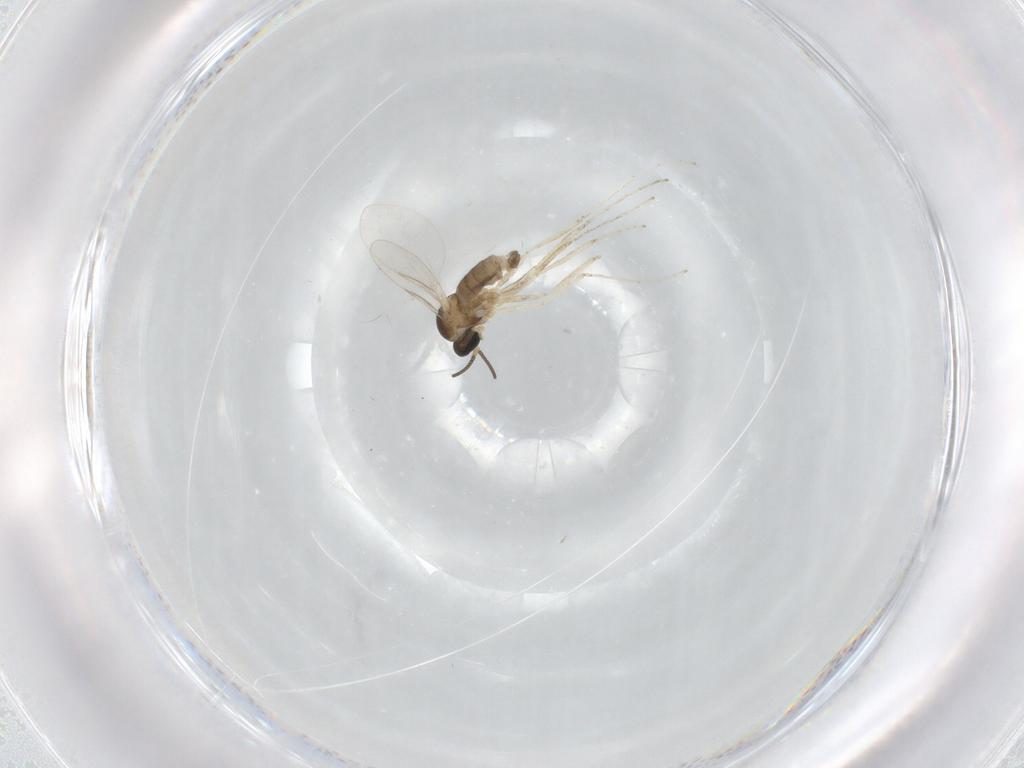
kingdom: Animalia
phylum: Arthropoda
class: Insecta
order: Diptera
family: Cecidomyiidae
